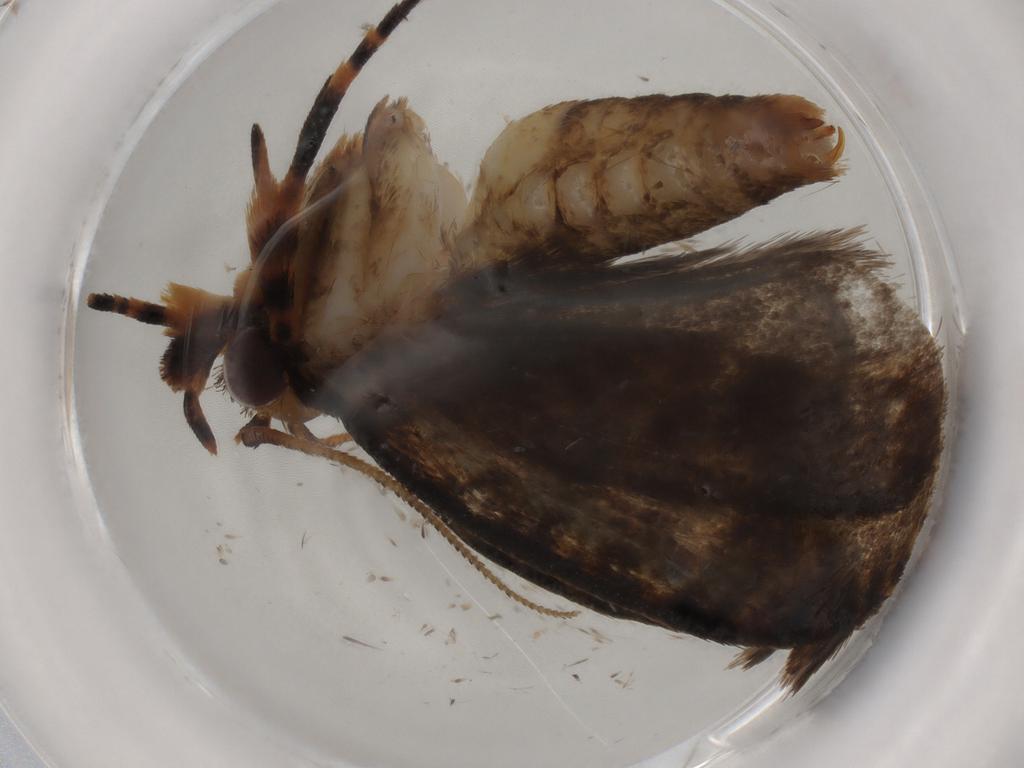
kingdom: Animalia
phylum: Arthropoda
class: Insecta
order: Lepidoptera
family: Tineidae
